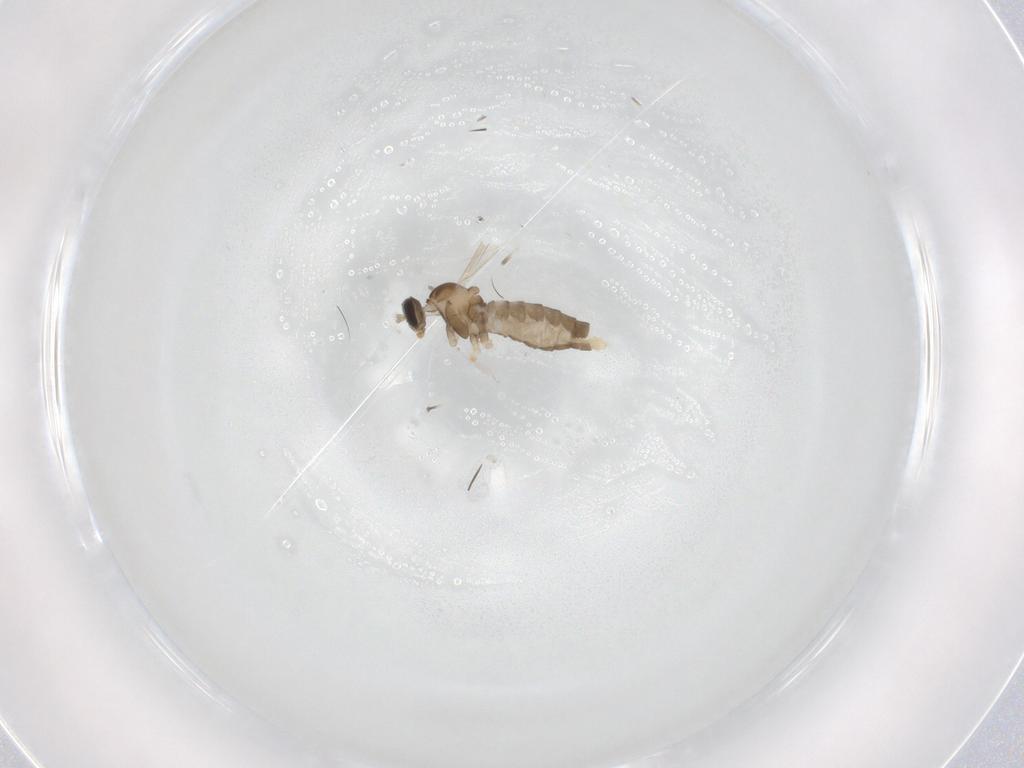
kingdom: Animalia
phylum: Arthropoda
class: Insecta
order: Diptera
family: Cecidomyiidae
